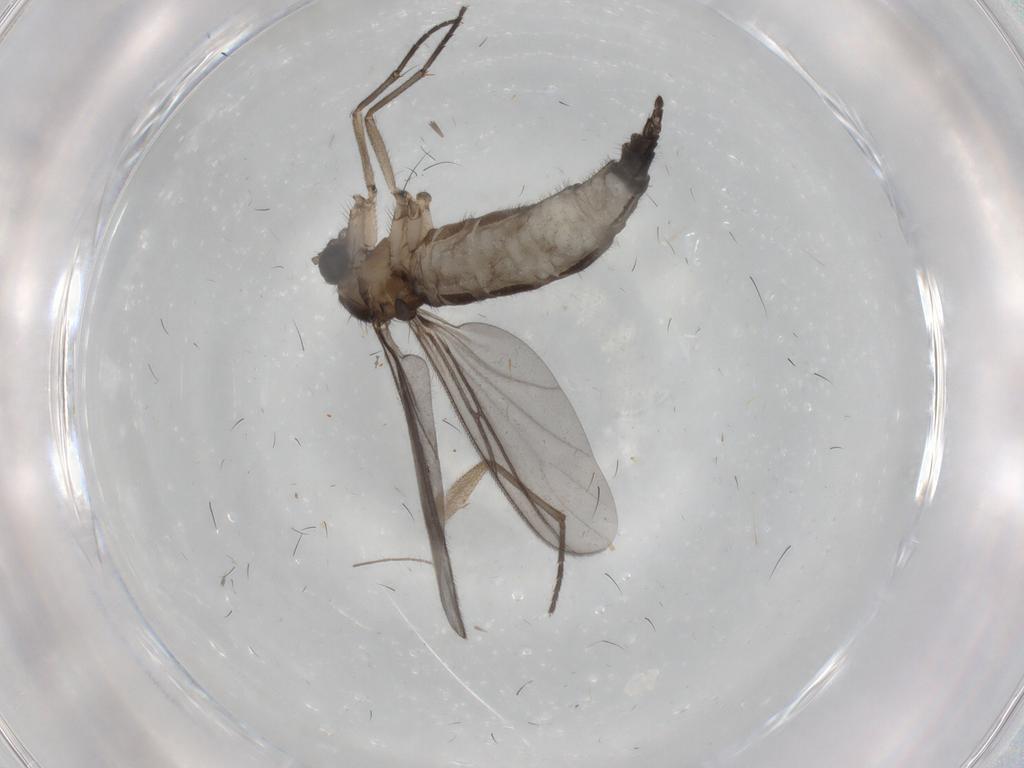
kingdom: Animalia
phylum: Arthropoda
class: Insecta
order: Diptera
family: Sciaridae
